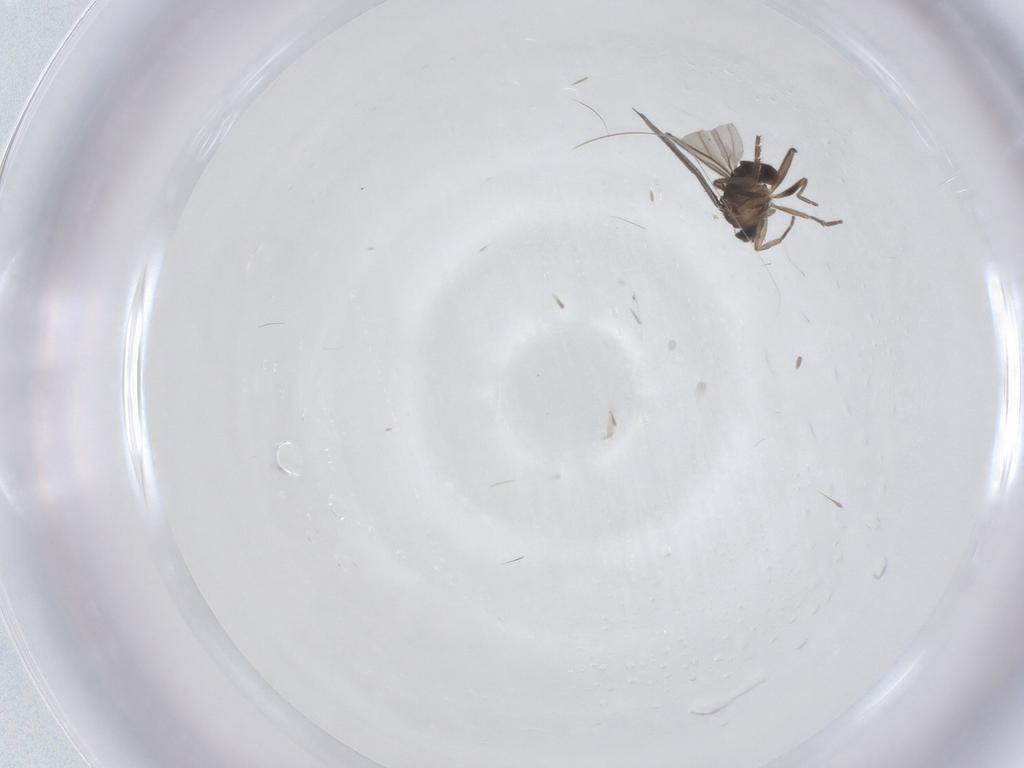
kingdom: Animalia
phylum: Arthropoda
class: Insecta
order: Diptera
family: Phoridae
